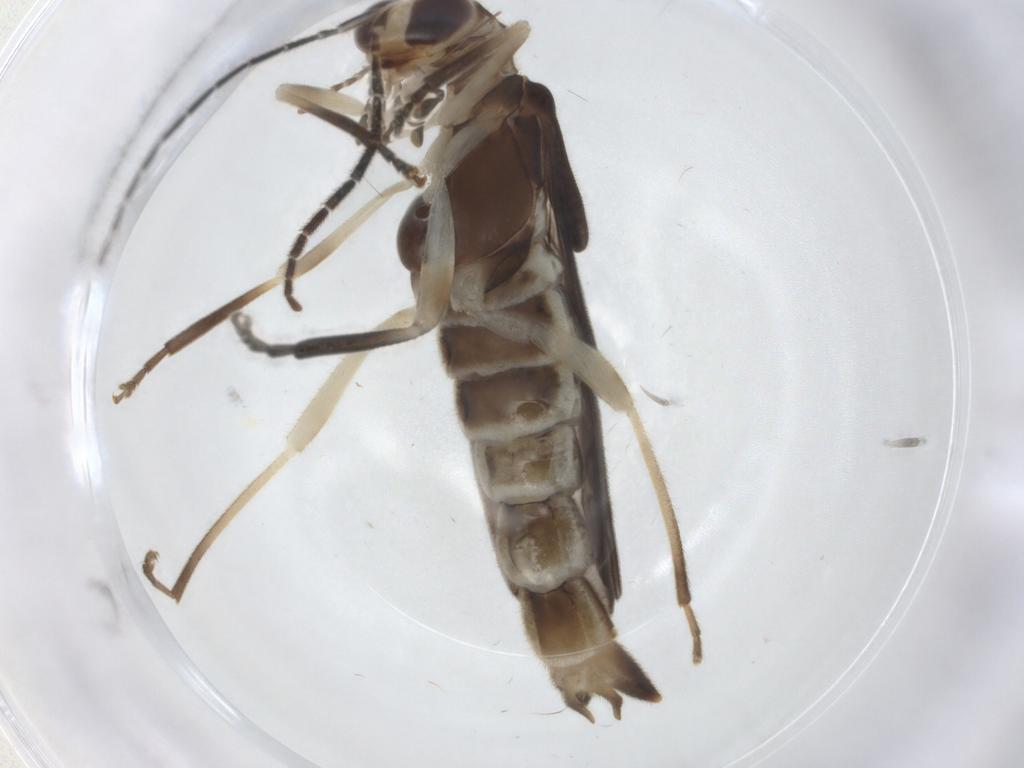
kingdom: Animalia
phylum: Arthropoda
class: Insecta
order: Coleoptera
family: Cantharidae
